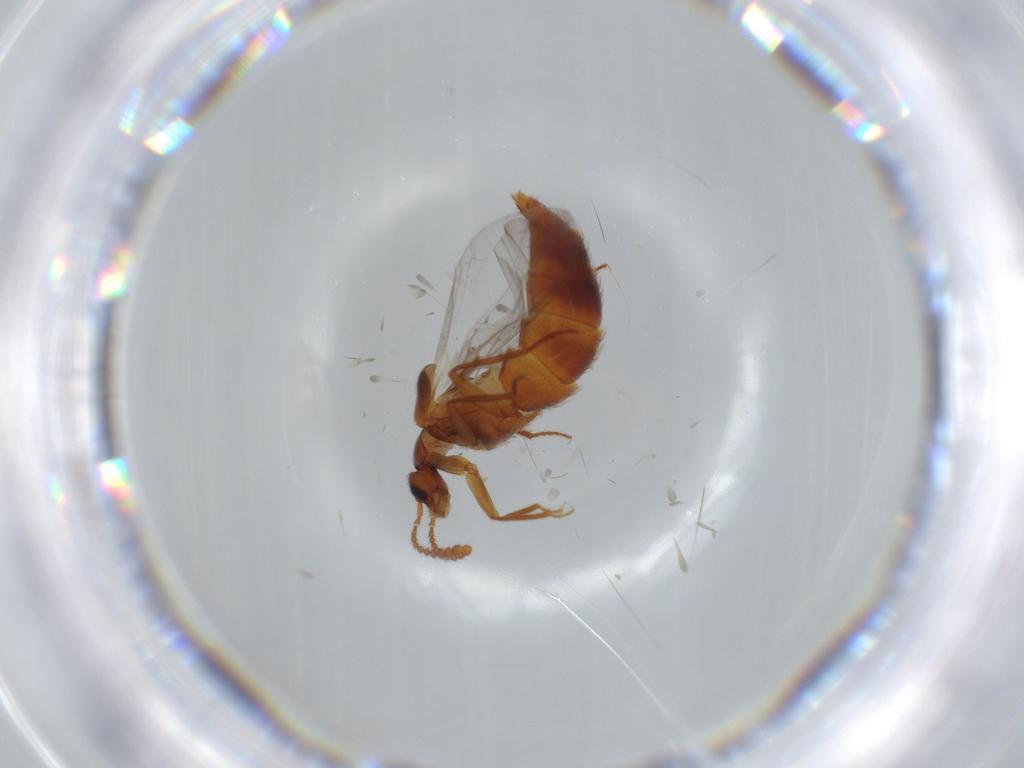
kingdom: Animalia
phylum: Arthropoda
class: Insecta
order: Coleoptera
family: Staphylinidae
